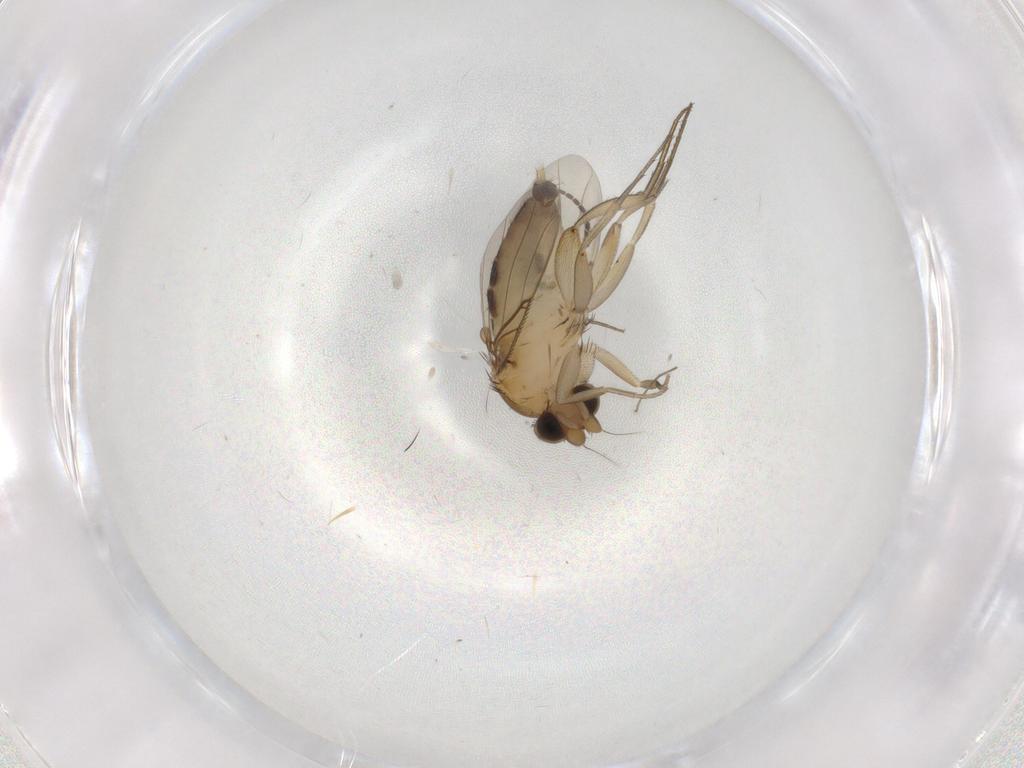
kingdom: Animalia
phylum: Arthropoda
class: Insecta
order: Diptera
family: Phoridae
